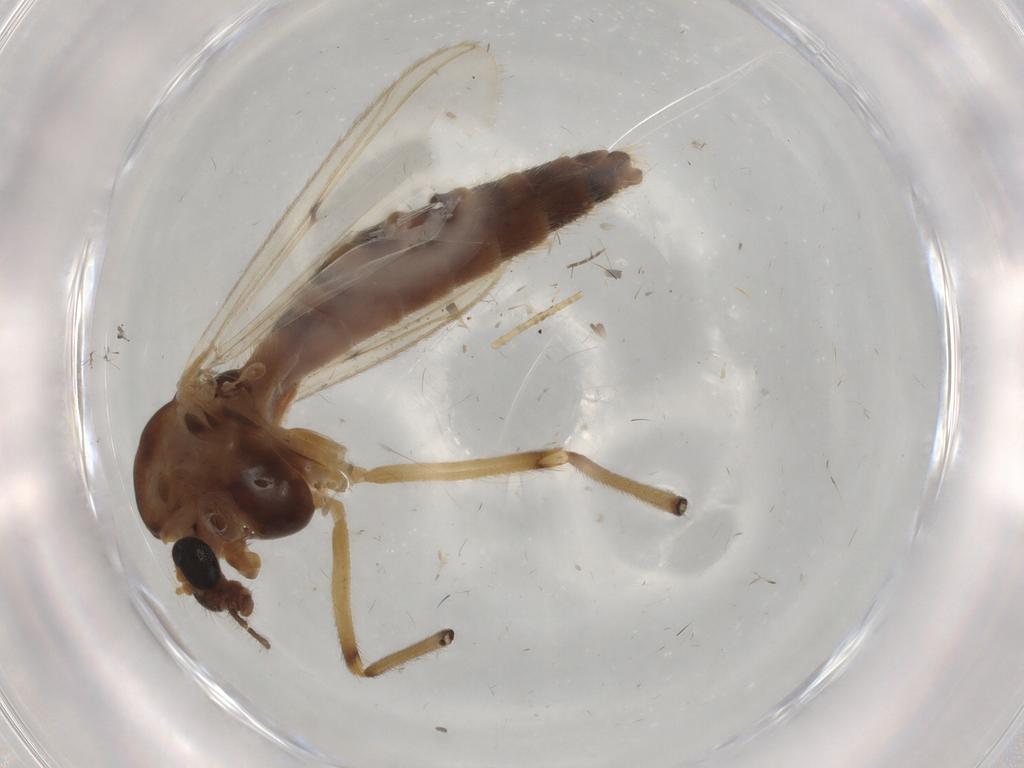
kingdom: Animalia
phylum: Arthropoda
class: Insecta
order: Diptera
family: Chironomidae
